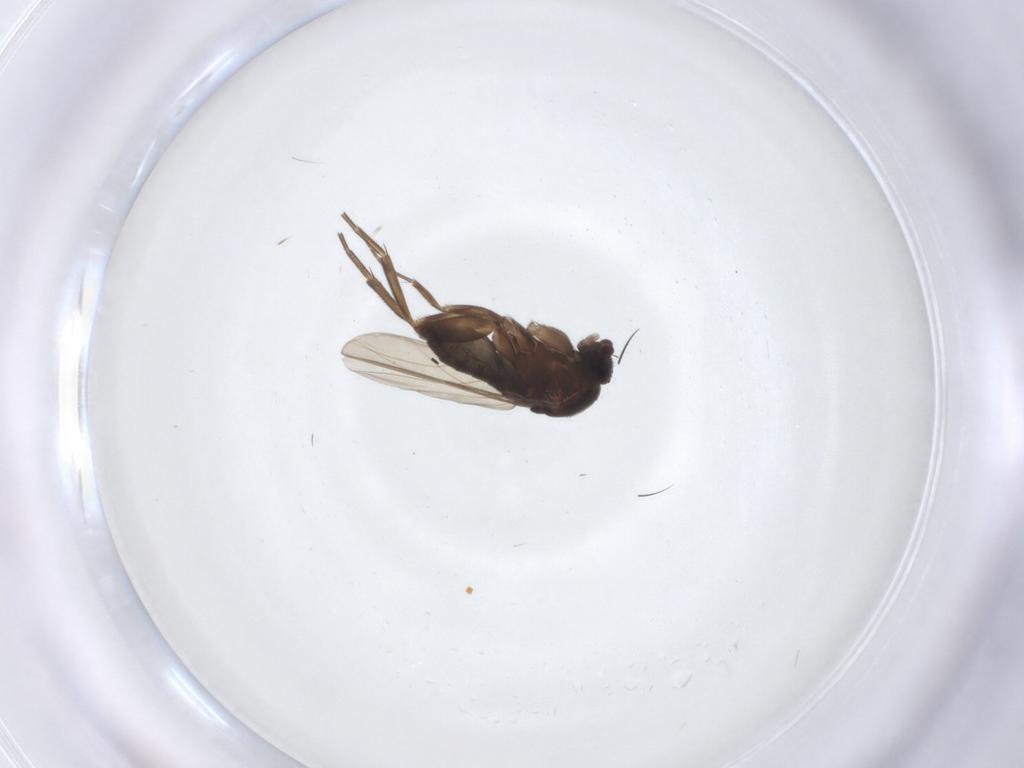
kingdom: Animalia
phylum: Arthropoda
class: Insecta
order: Diptera
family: Phoridae
